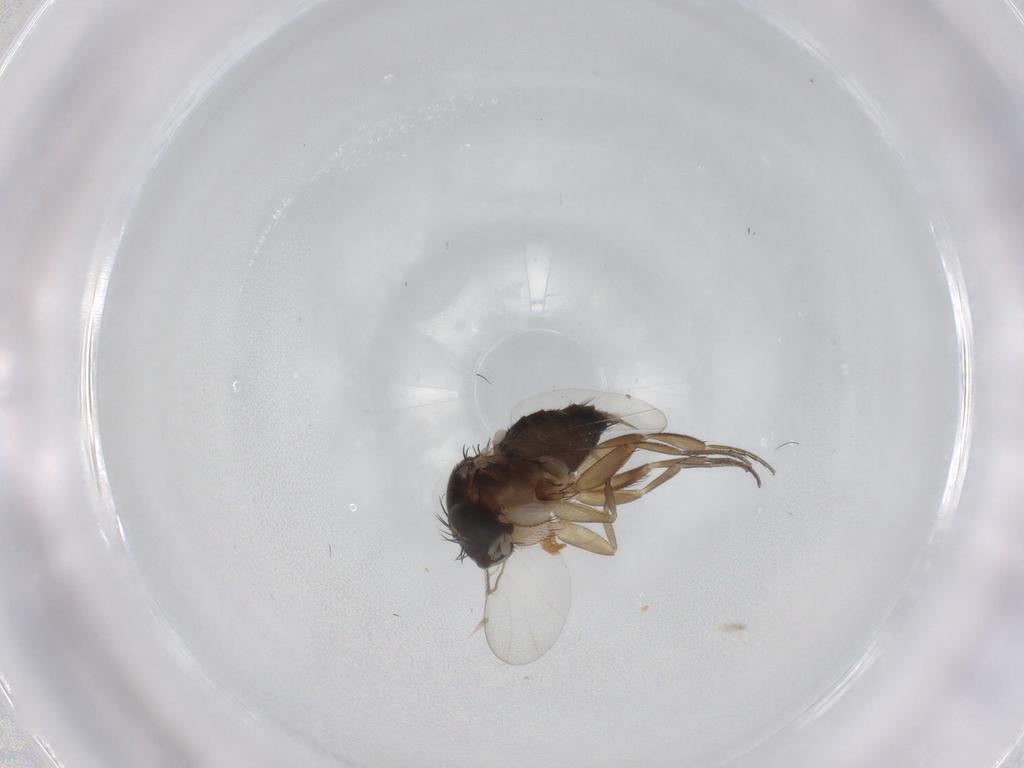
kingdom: Animalia
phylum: Arthropoda
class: Insecta
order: Diptera
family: Phoridae
